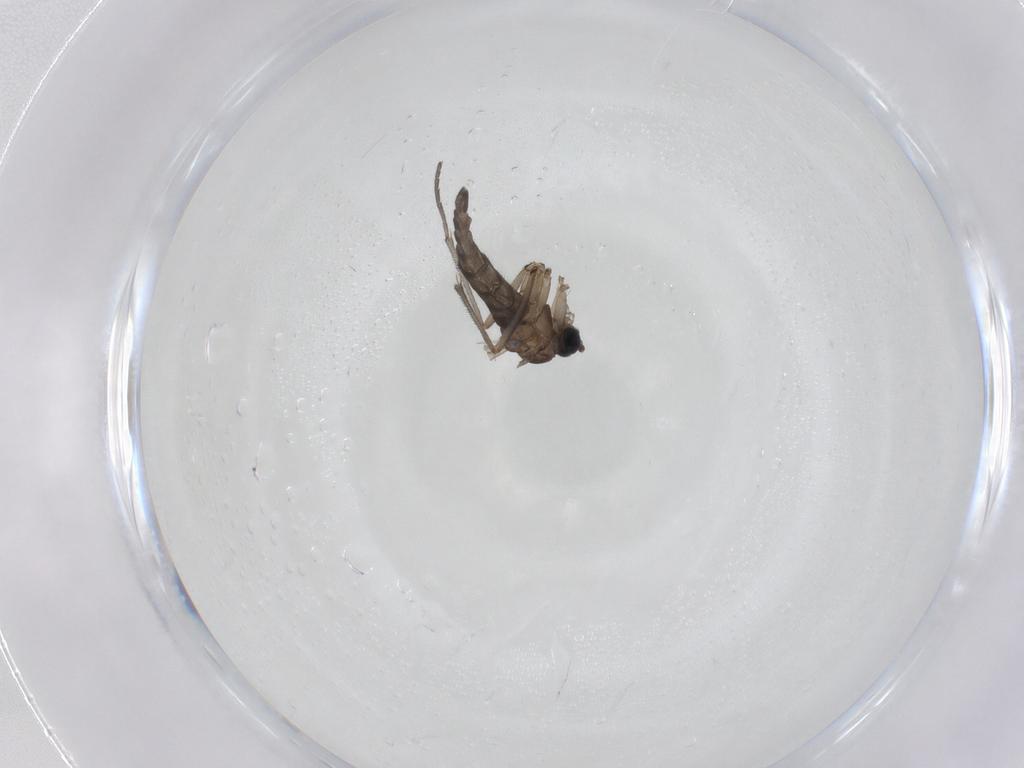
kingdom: Animalia
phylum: Arthropoda
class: Insecta
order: Diptera
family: Sciaridae
